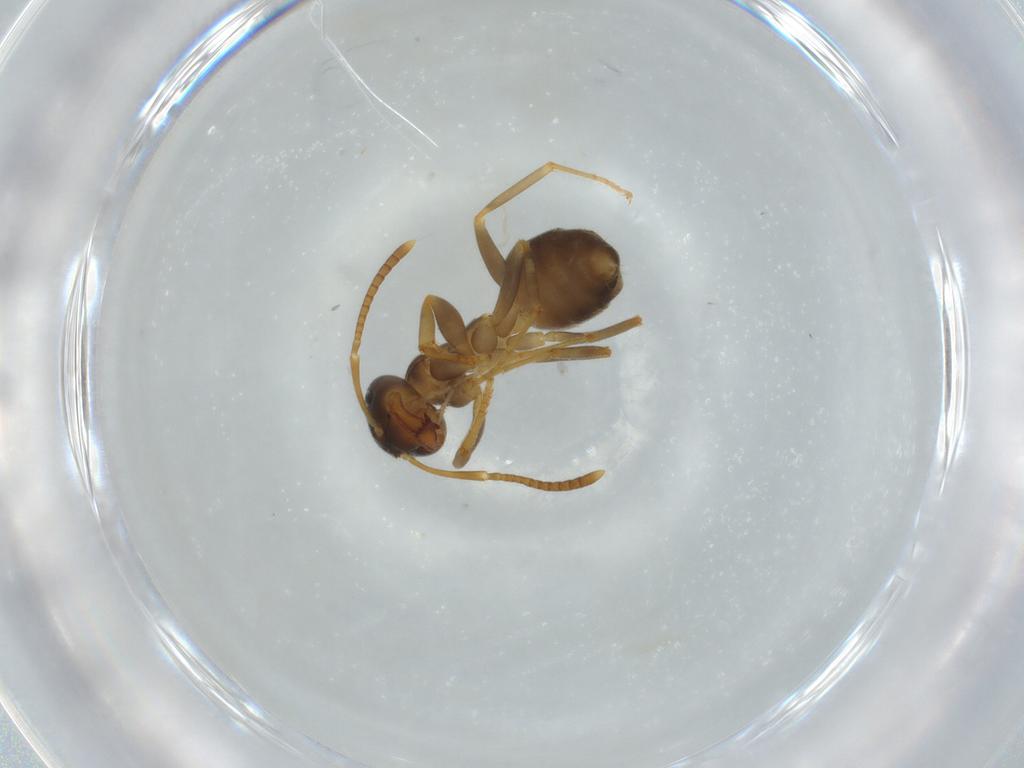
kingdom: Animalia
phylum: Arthropoda
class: Insecta
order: Hymenoptera
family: Formicidae
